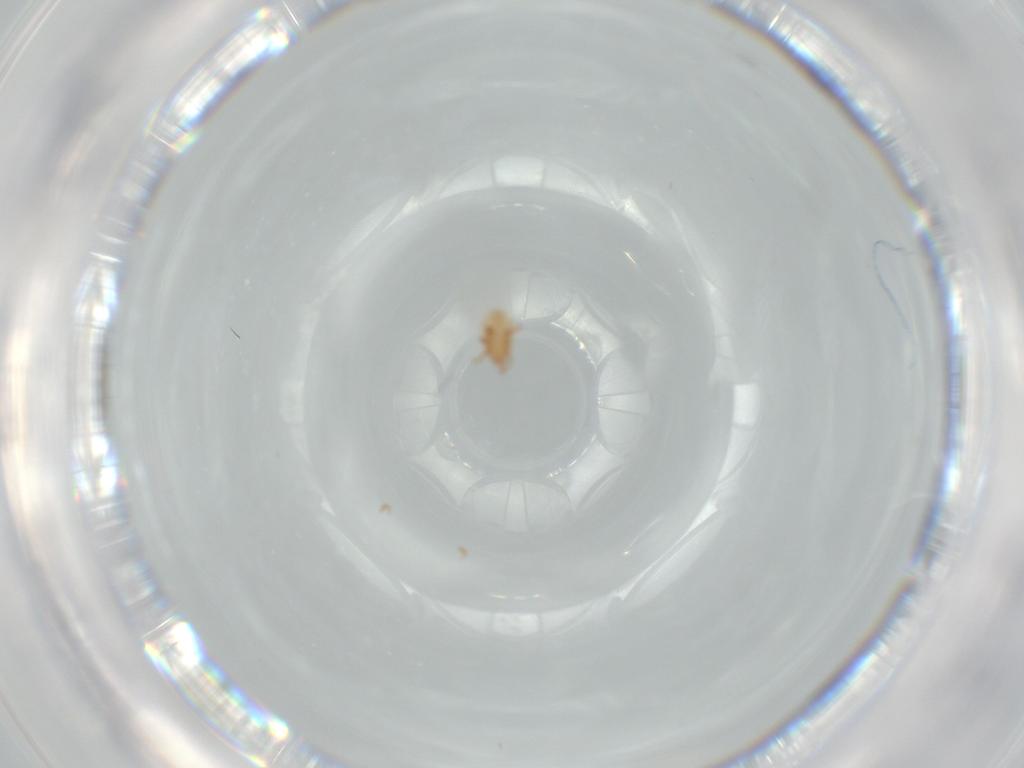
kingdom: Animalia
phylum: Arthropoda
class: Arachnida
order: Mesostigmata
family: Dinychidae
